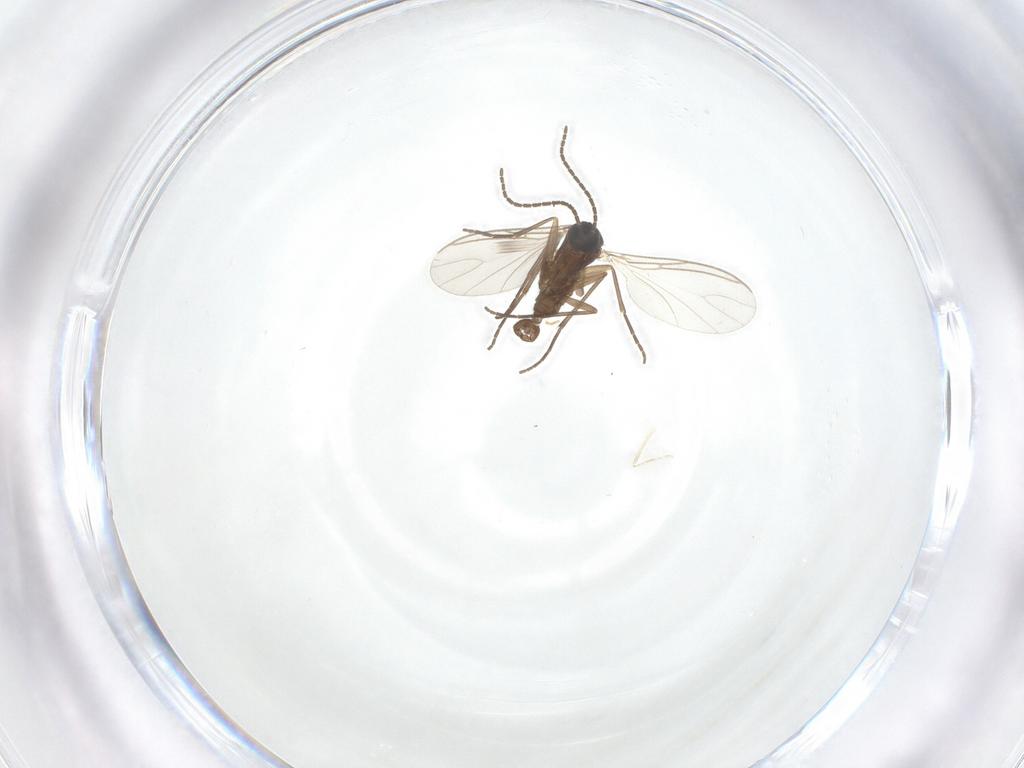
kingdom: Animalia
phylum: Arthropoda
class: Insecta
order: Diptera
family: Sciaridae
